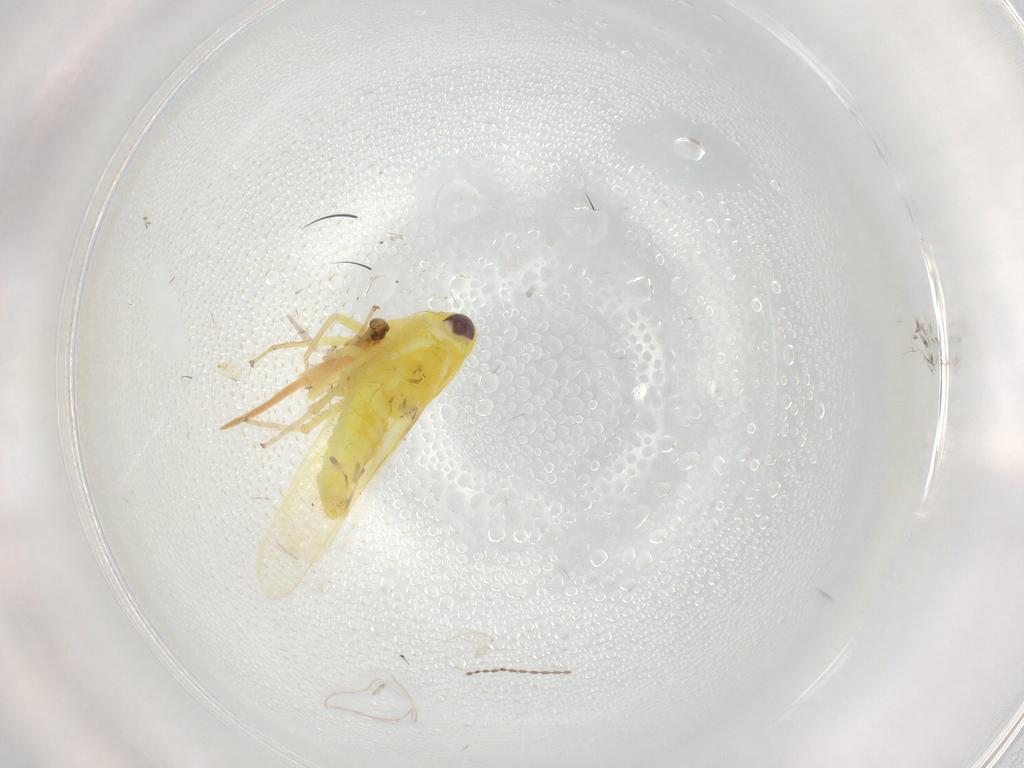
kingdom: Animalia
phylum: Arthropoda
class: Insecta
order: Hemiptera
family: Cicadellidae
